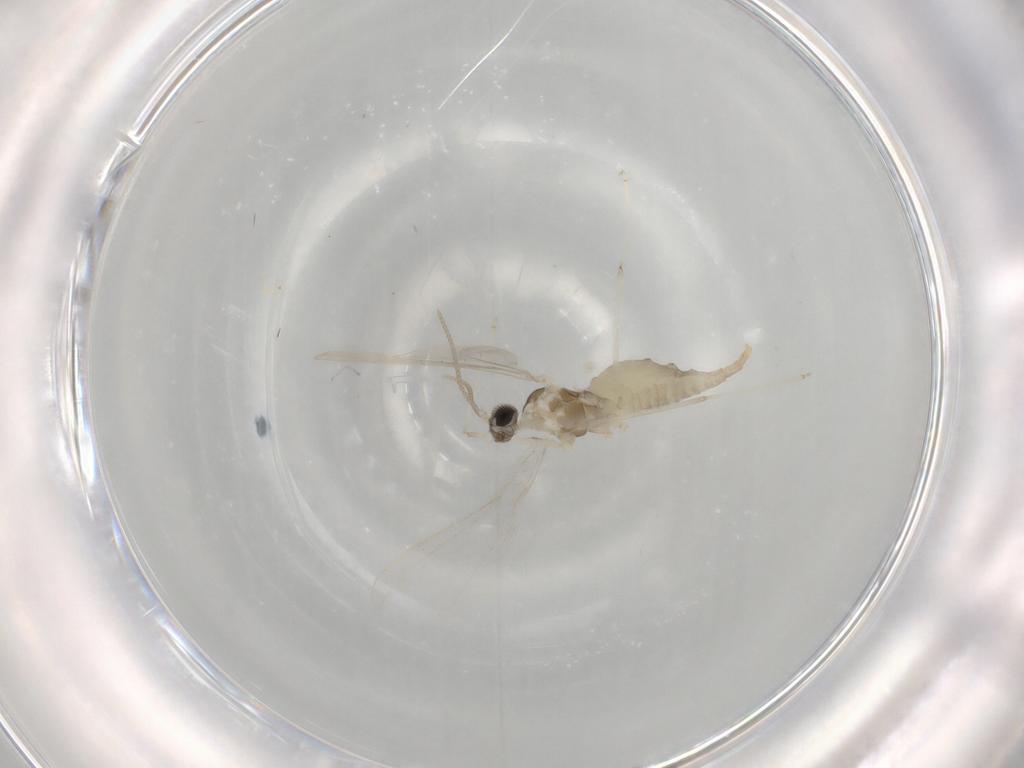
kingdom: Animalia
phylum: Arthropoda
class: Insecta
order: Diptera
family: Cecidomyiidae
